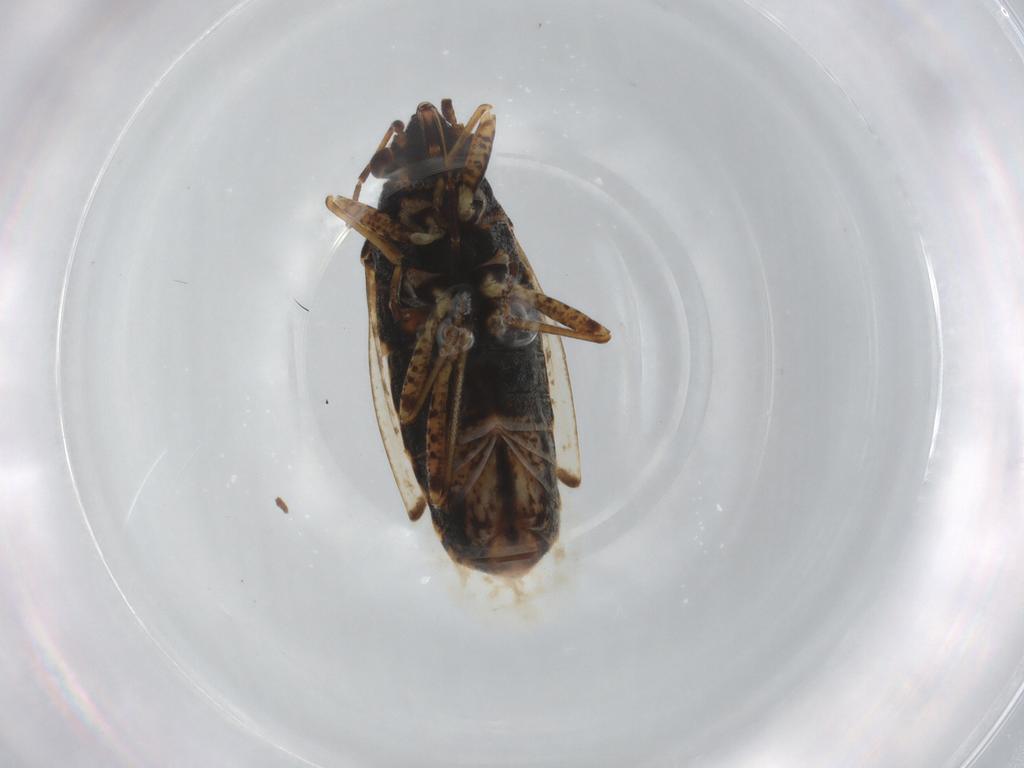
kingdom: Animalia
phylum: Arthropoda
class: Insecta
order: Hemiptera
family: Lygaeidae
